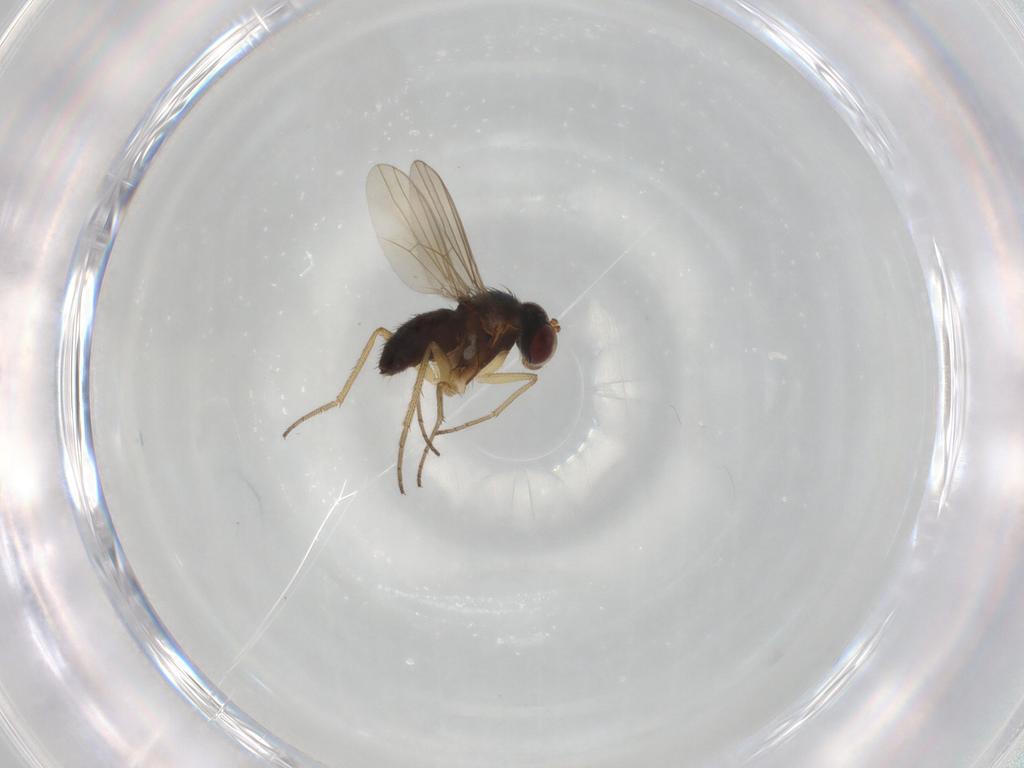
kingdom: Animalia
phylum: Arthropoda
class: Insecta
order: Diptera
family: Dolichopodidae
